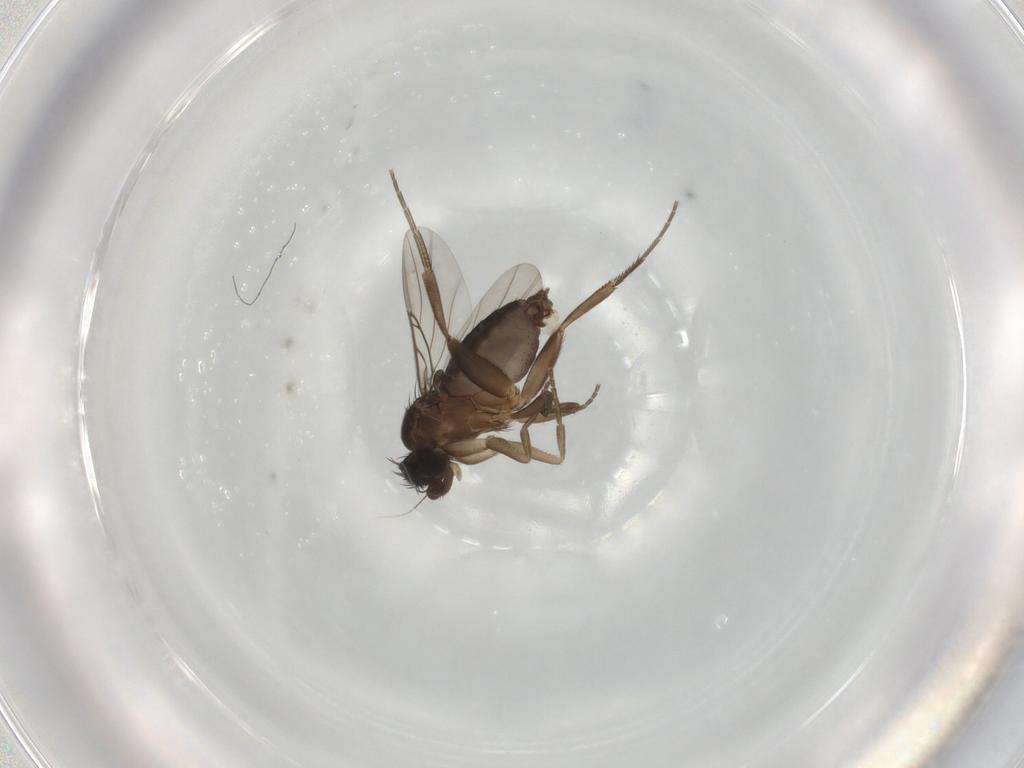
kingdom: Animalia
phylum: Arthropoda
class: Insecta
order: Diptera
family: Phoridae
